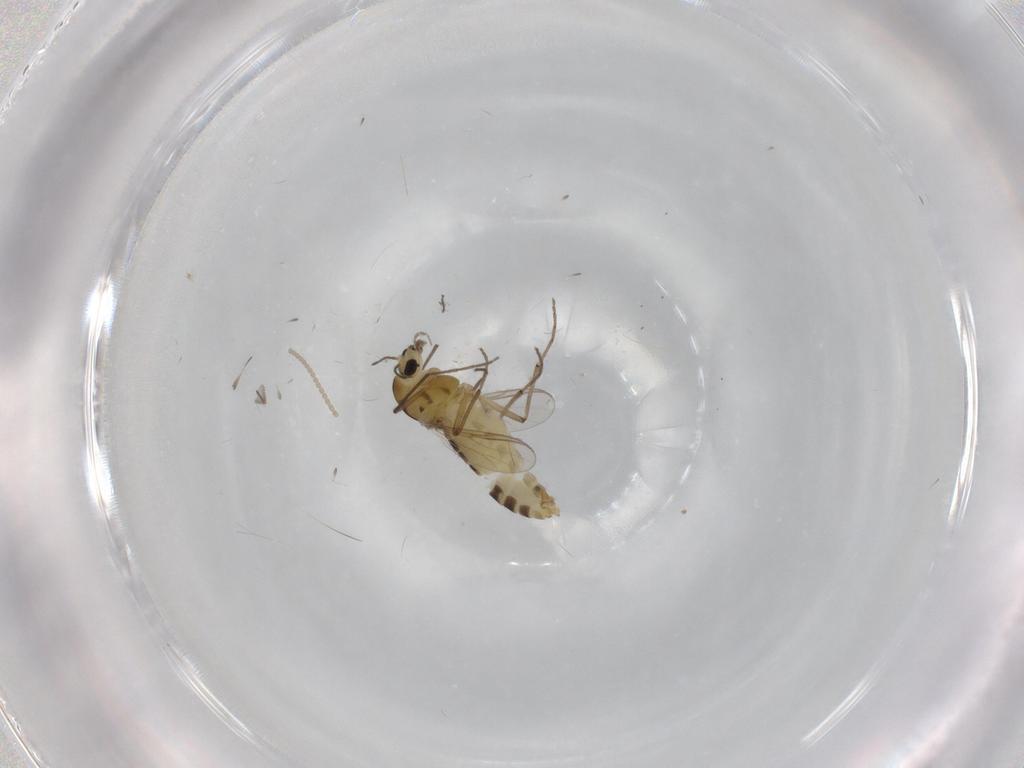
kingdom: Animalia
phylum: Arthropoda
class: Insecta
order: Diptera
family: Chironomidae
